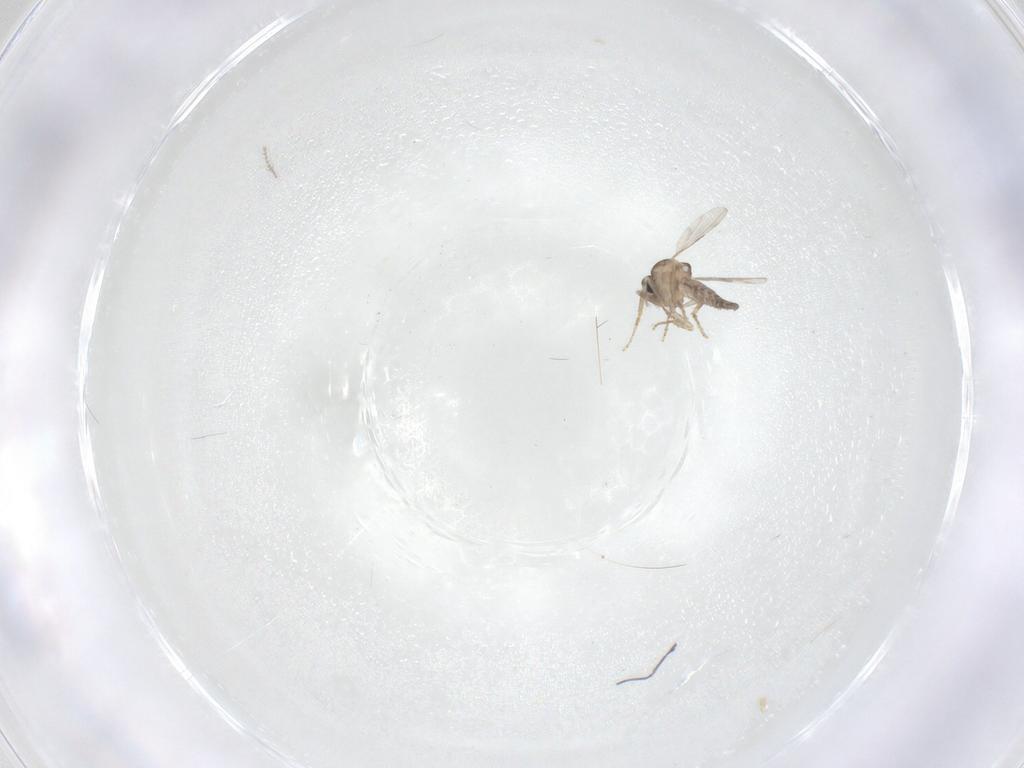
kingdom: Animalia
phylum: Arthropoda
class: Insecta
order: Diptera
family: Ceratopogonidae
